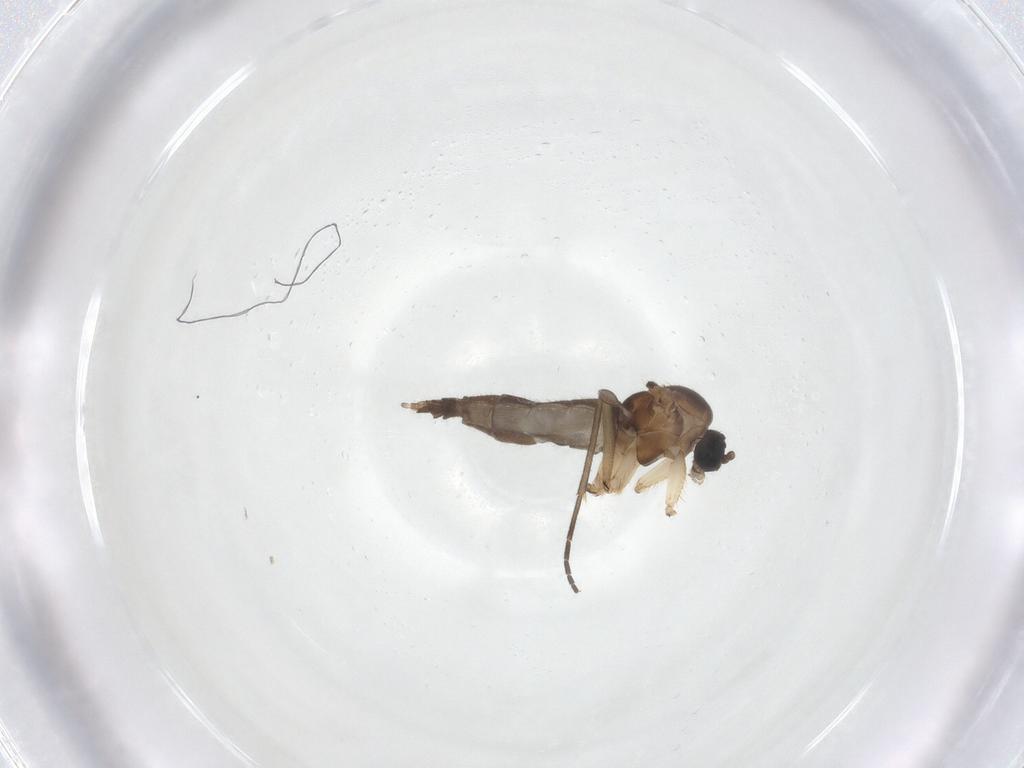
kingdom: Animalia
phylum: Arthropoda
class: Insecta
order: Diptera
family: Sciaridae
